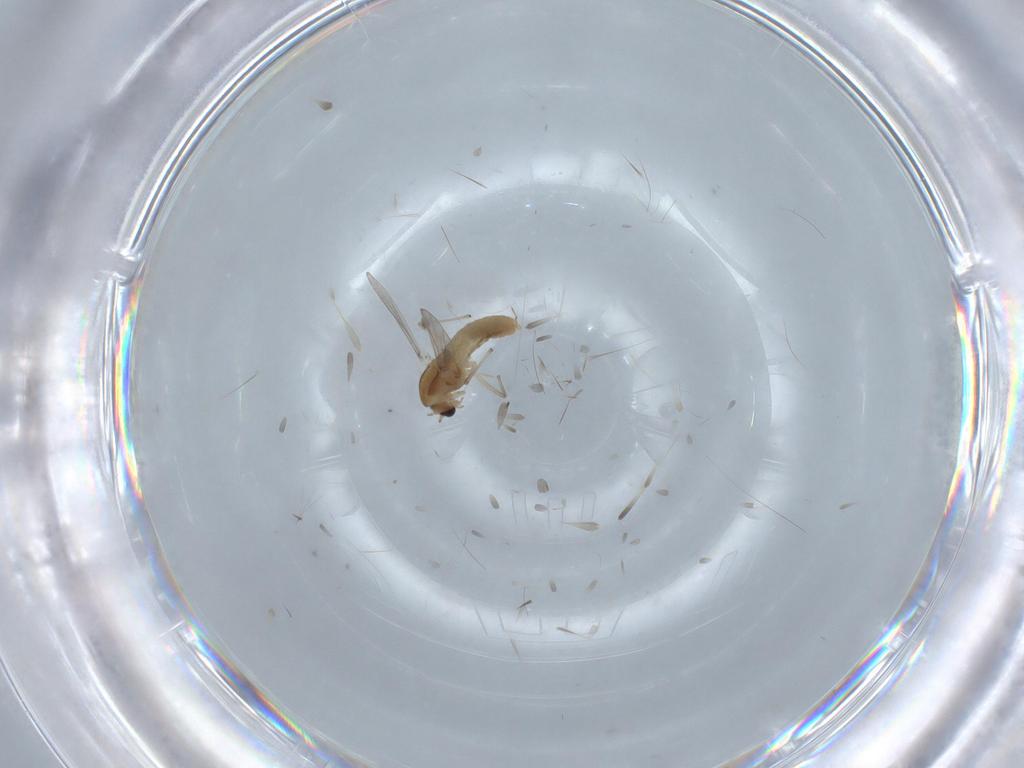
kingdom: Animalia
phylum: Arthropoda
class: Insecta
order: Diptera
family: Chironomidae
